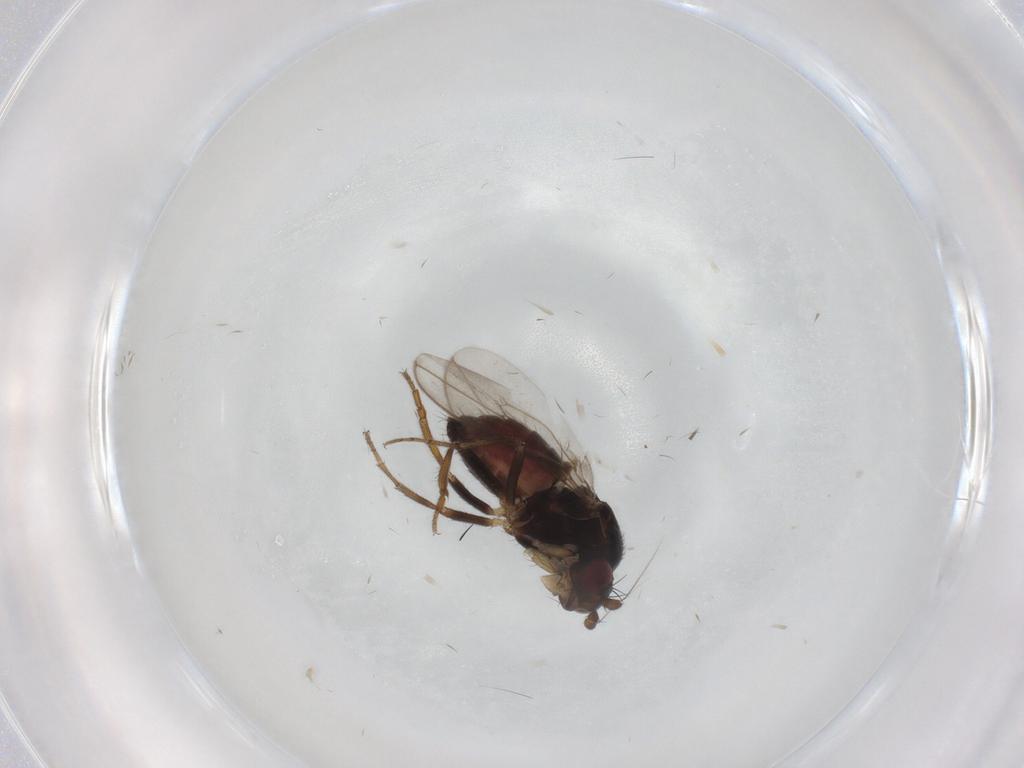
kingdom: Animalia
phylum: Arthropoda
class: Insecta
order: Diptera
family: Sphaeroceridae
